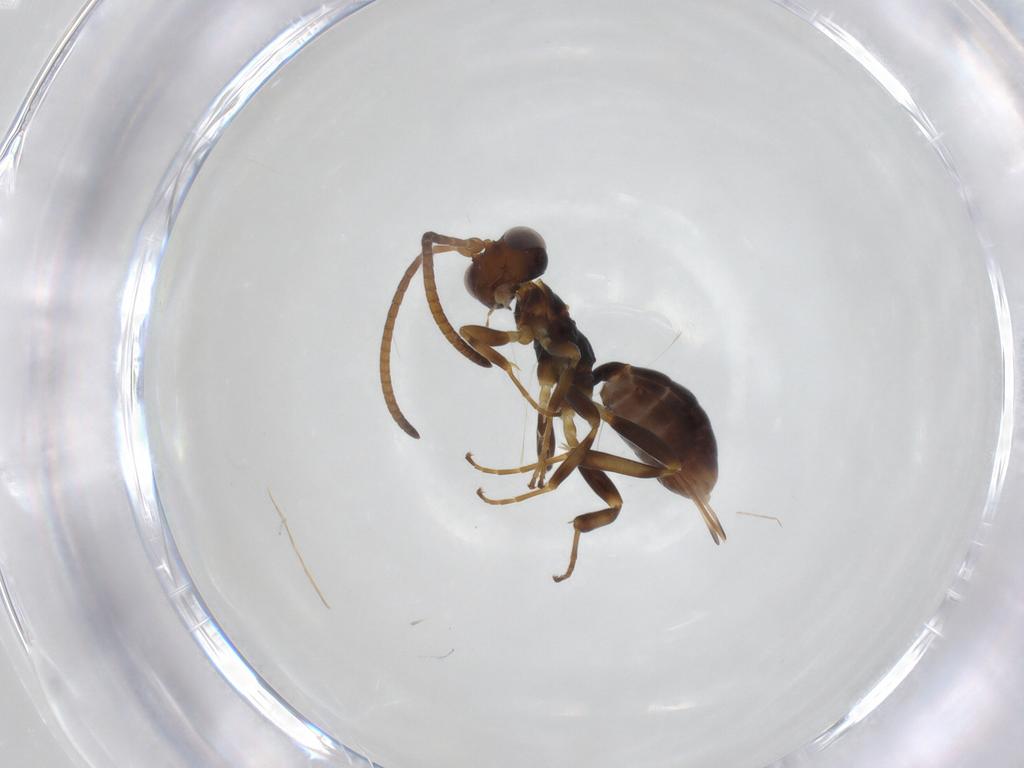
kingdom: Animalia
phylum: Arthropoda
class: Insecta
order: Hymenoptera
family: Ichneumonidae
